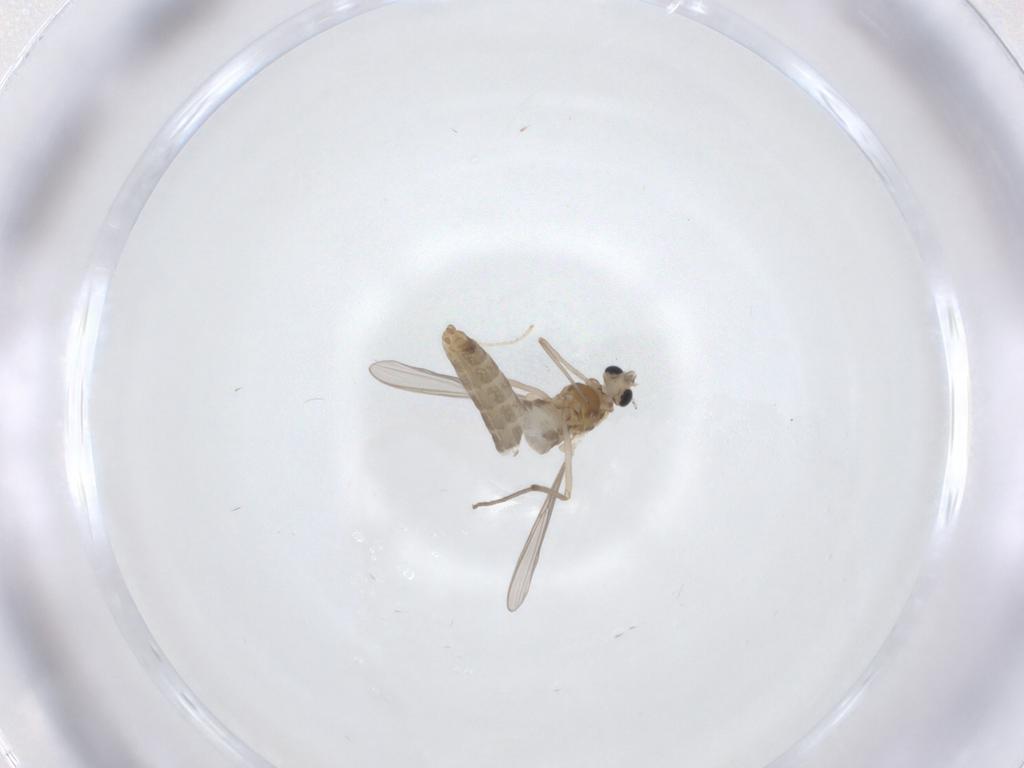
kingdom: Animalia
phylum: Arthropoda
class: Insecta
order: Diptera
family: Chironomidae
